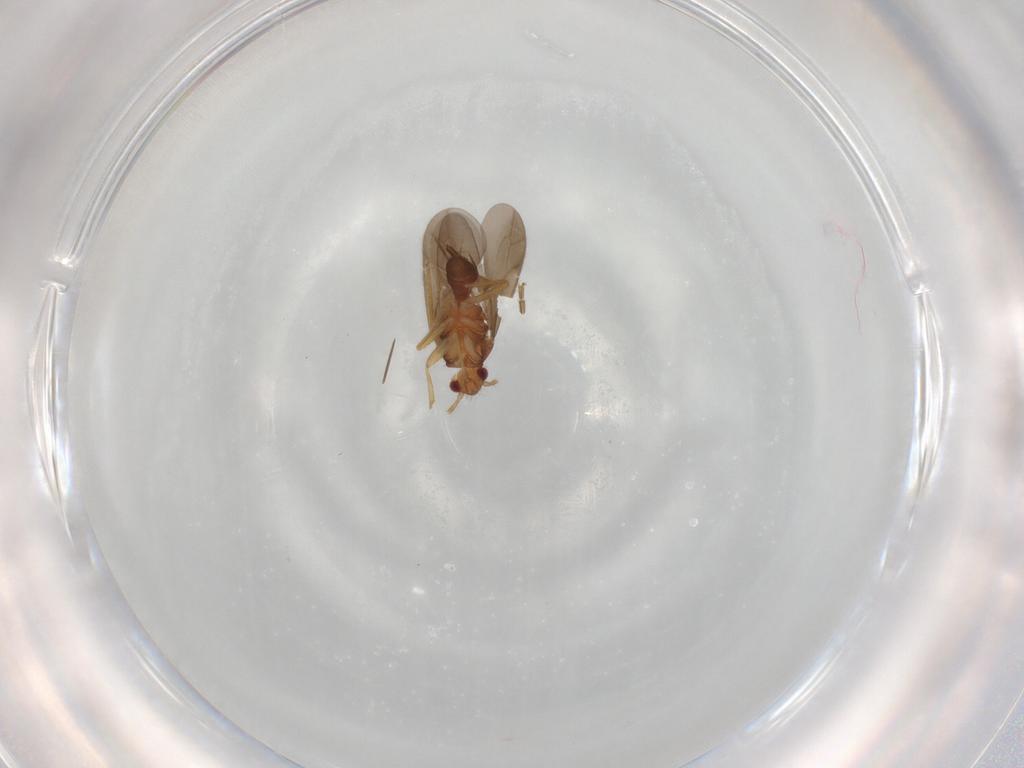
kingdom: Animalia
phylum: Arthropoda
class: Insecta
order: Hemiptera
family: Ceratocombidae
